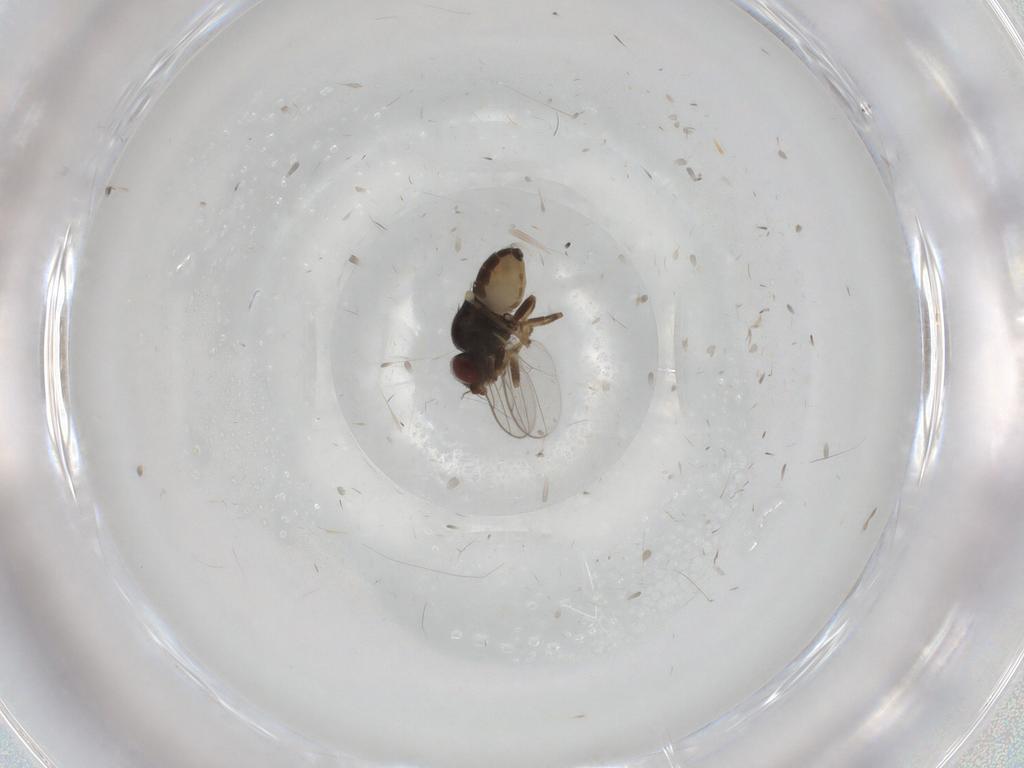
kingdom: Animalia
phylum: Arthropoda
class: Insecta
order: Diptera
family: Chloropidae
